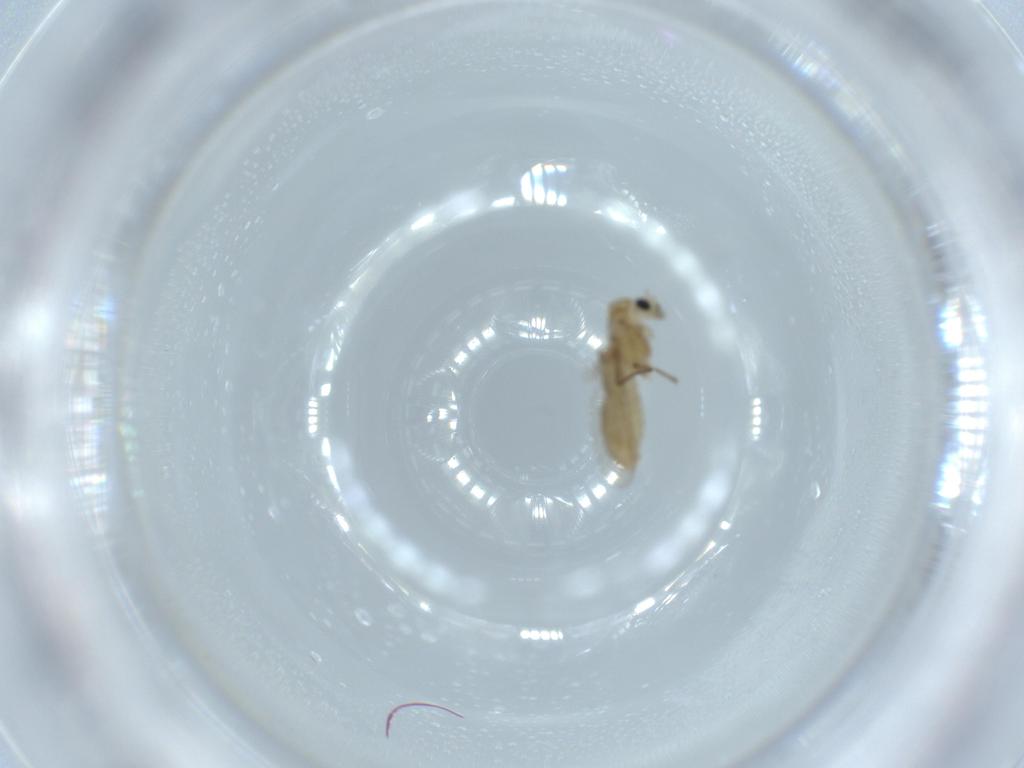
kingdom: Animalia
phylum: Arthropoda
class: Insecta
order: Diptera
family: Chironomidae
